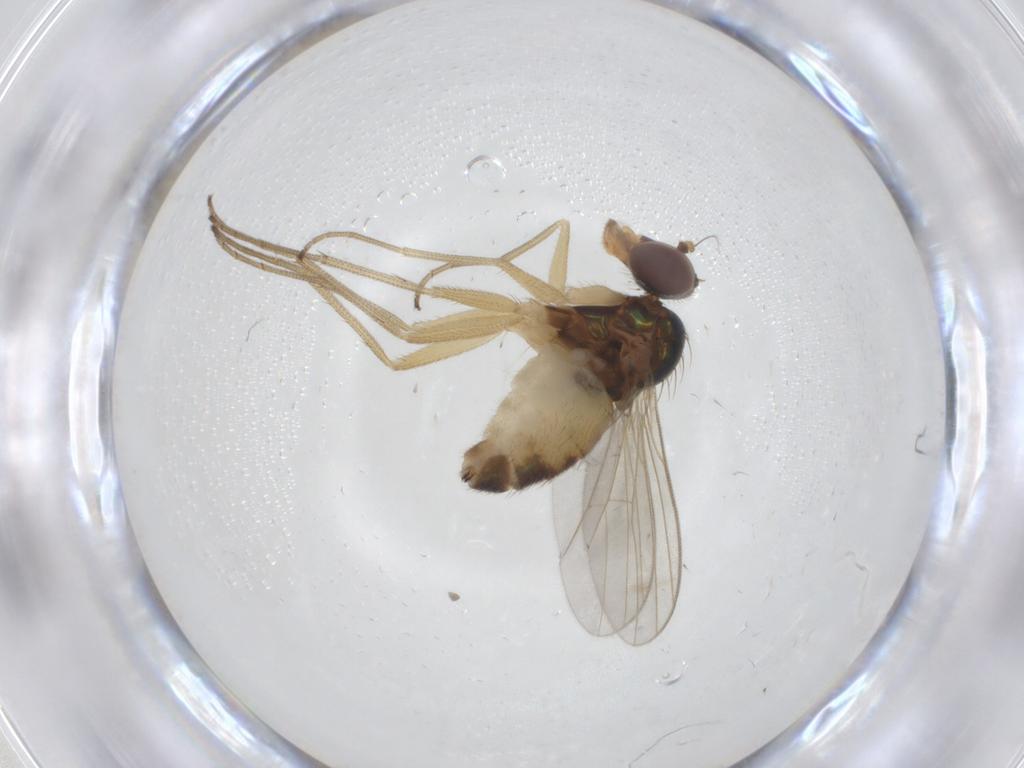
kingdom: Animalia
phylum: Arthropoda
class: Insecta
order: Diptera
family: Dolichopodidae
